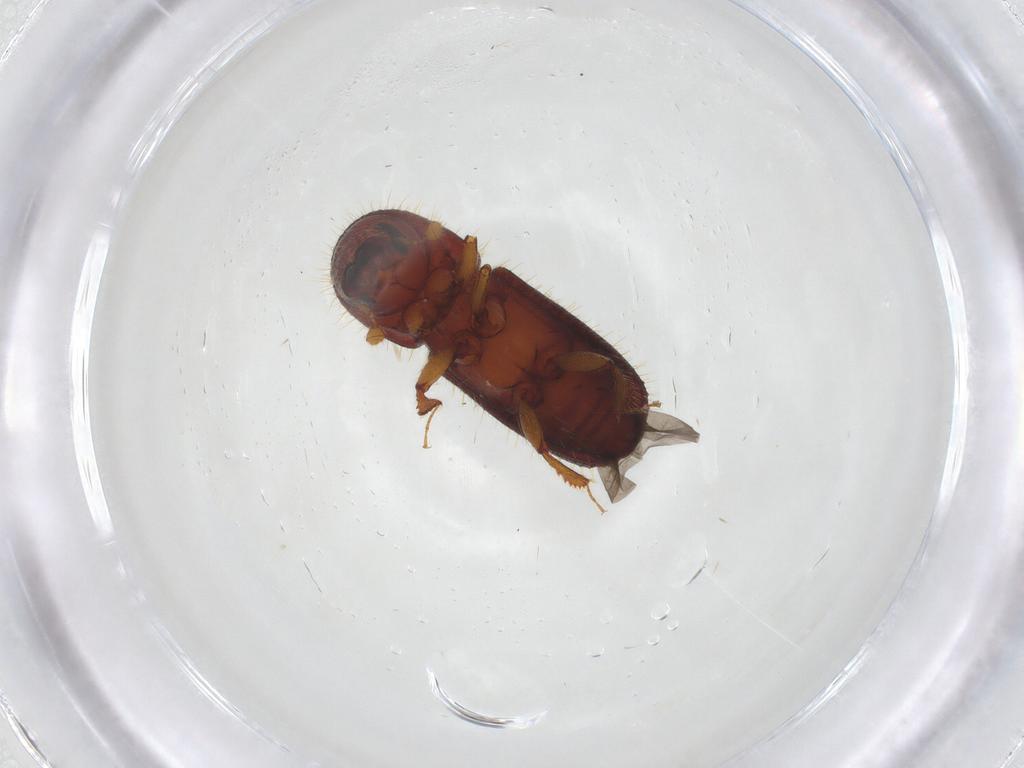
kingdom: Animalia
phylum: Arthropoda
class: Insecta
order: Coleoptera
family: Curculionidae
